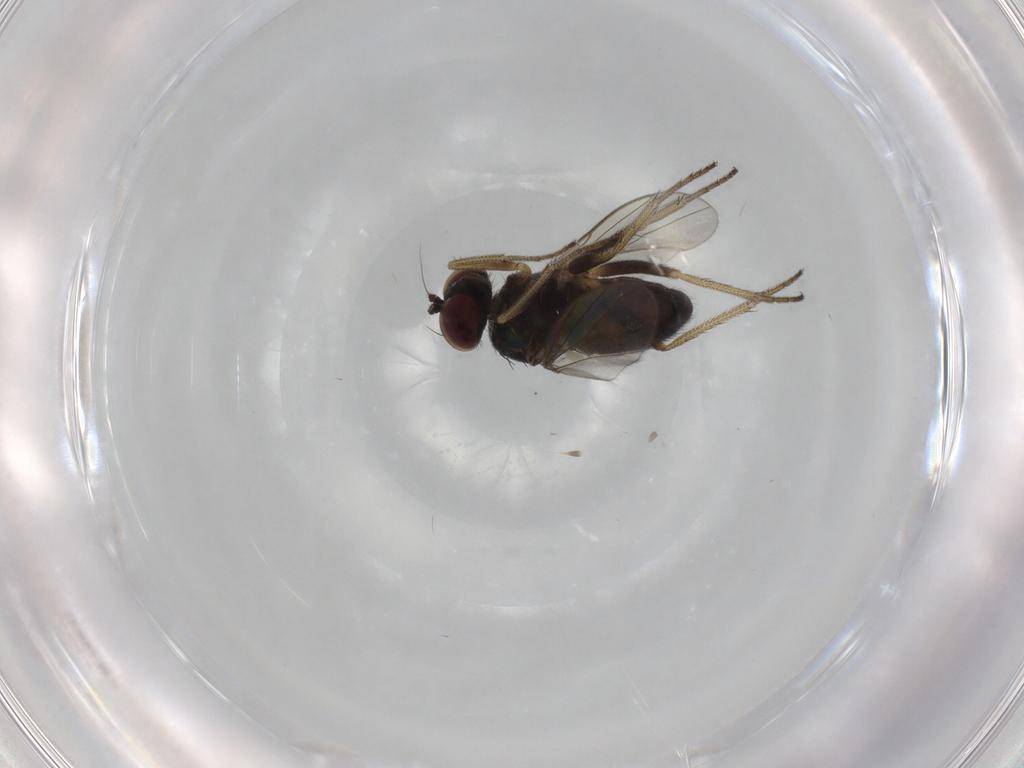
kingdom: Animalia
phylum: Arthropoda
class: Insecta
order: Diptera
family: Dolichopodidae
